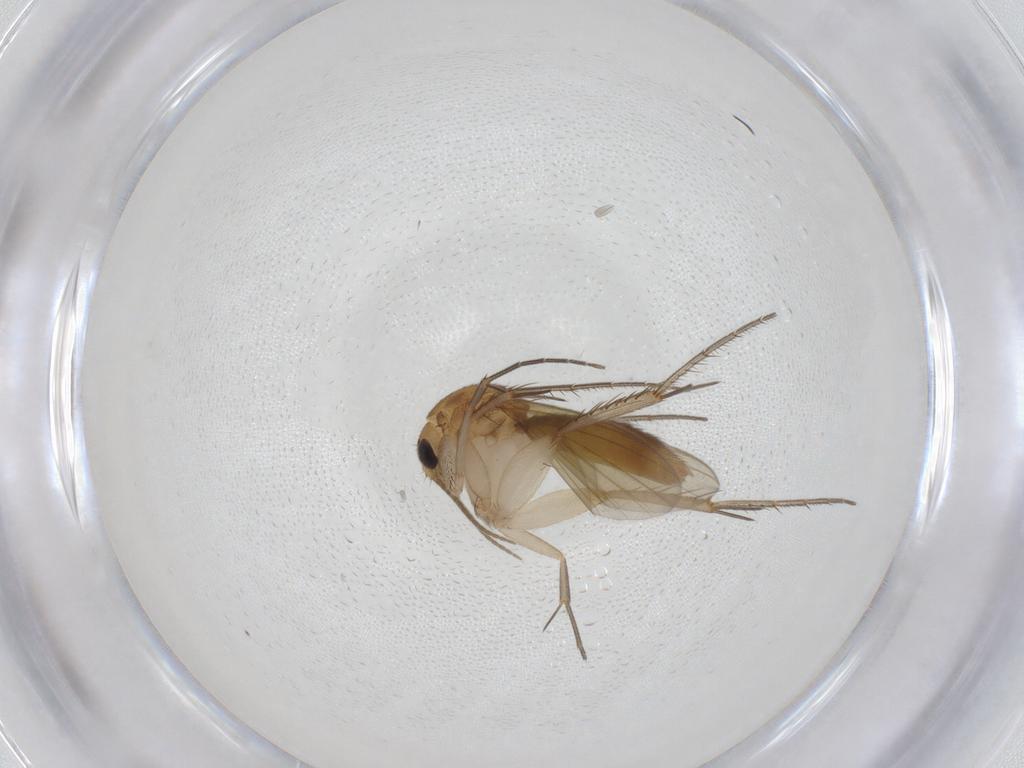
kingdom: Animalia
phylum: Arthropoda
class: Insecta
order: Diptera
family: Mycetophilidae
